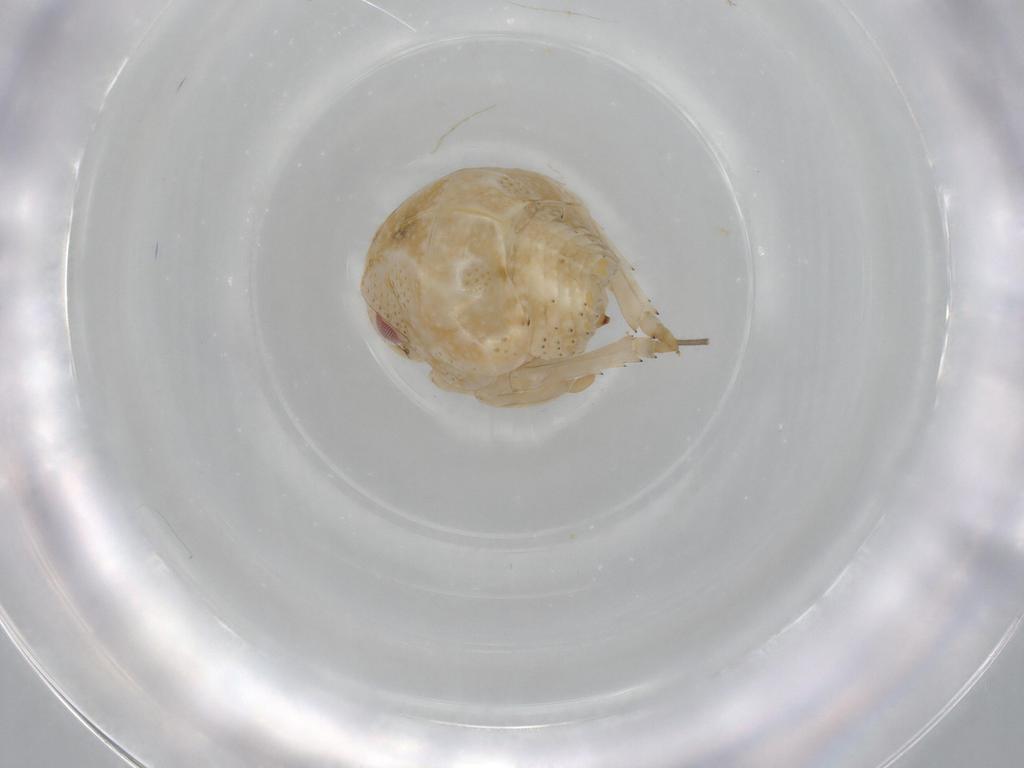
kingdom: Animalia
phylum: Arthropoda
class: Insecta
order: Hemiptera
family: Acanaloniidae
